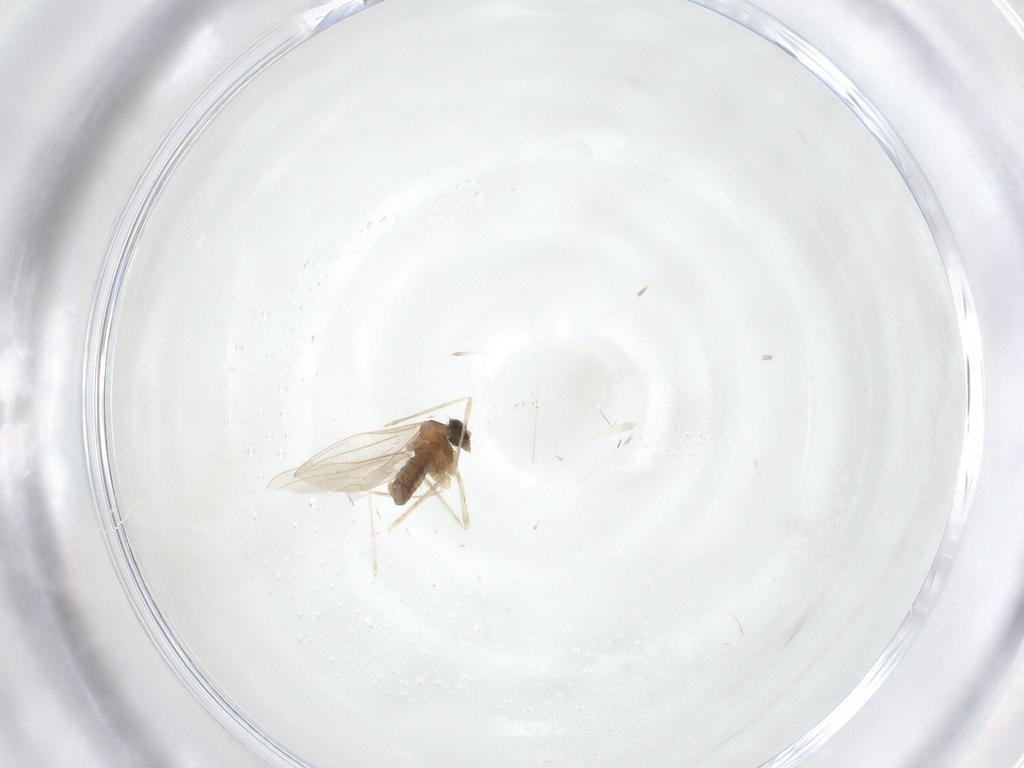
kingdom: Animalia
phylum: Arthropoda
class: Insecta
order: Diptera
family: Cecidomyiidae
